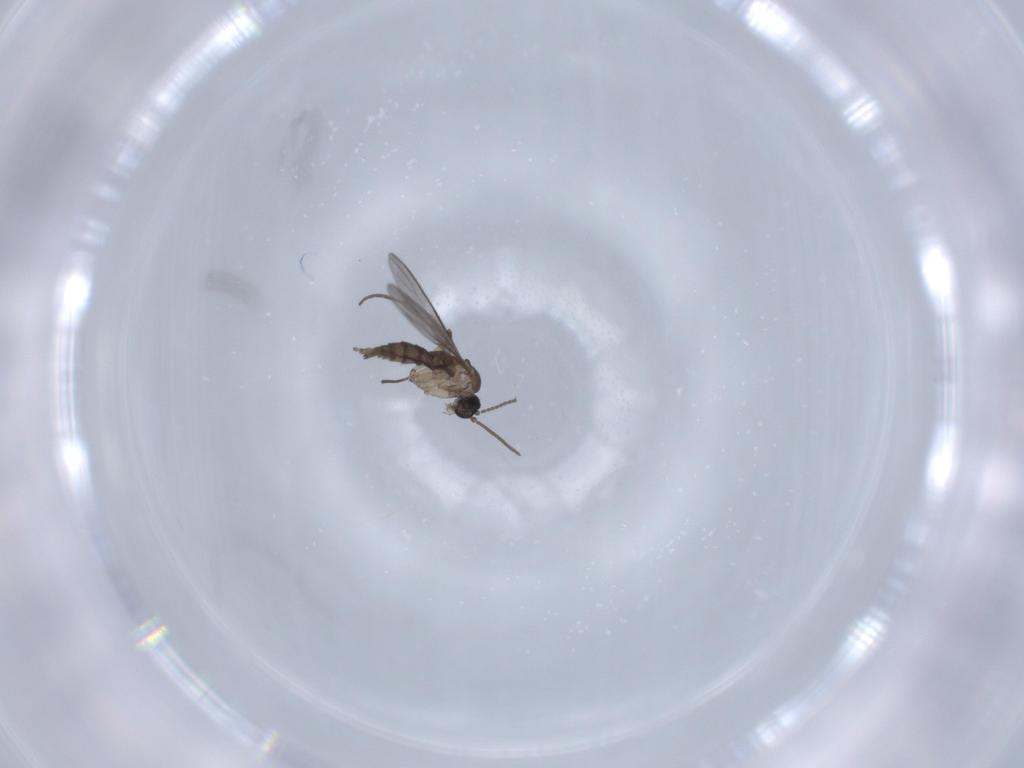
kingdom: Animalia
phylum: Arthropoda
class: Insecta
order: Diptera
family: Sciaridae
